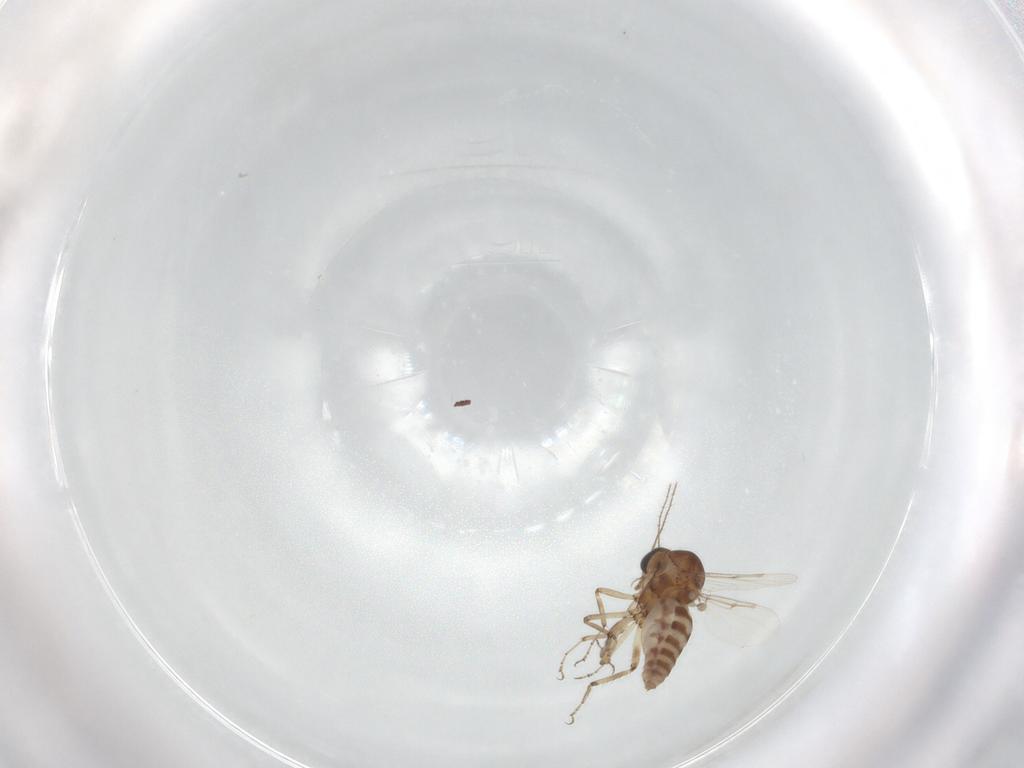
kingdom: Animalia
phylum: Arthropoda
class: Insecta
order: Diptera
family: Ceratopogonidae
